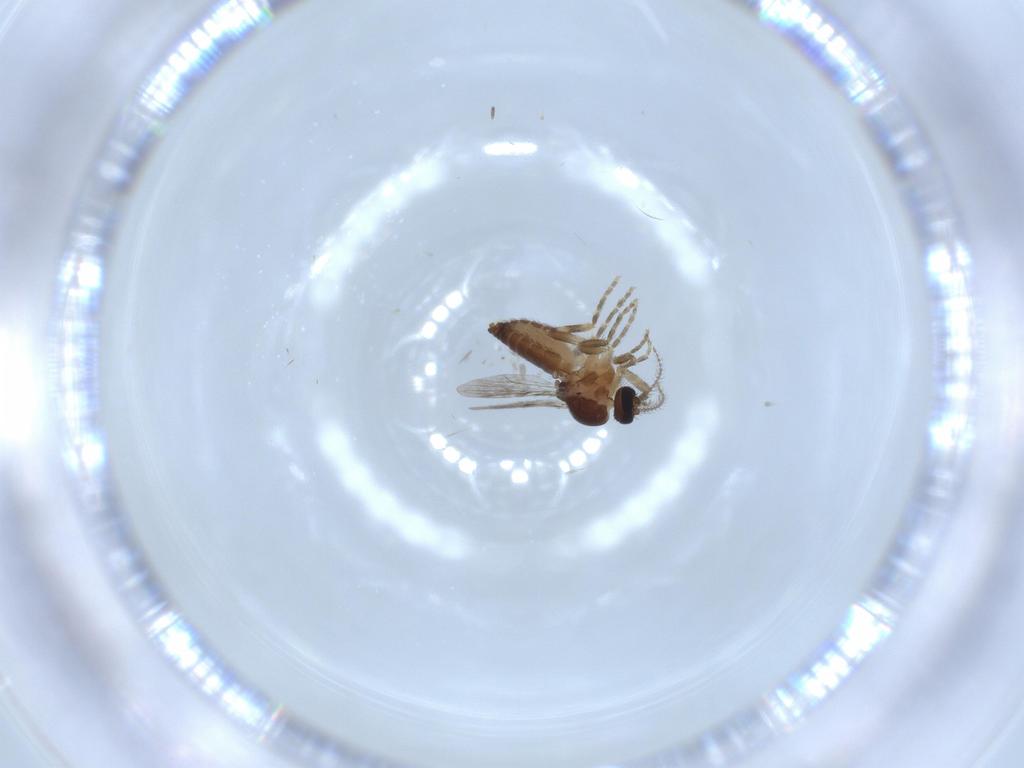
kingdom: Animalia
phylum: Arthropoda
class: Insecta
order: Diptera
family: Ceratopogonidae
